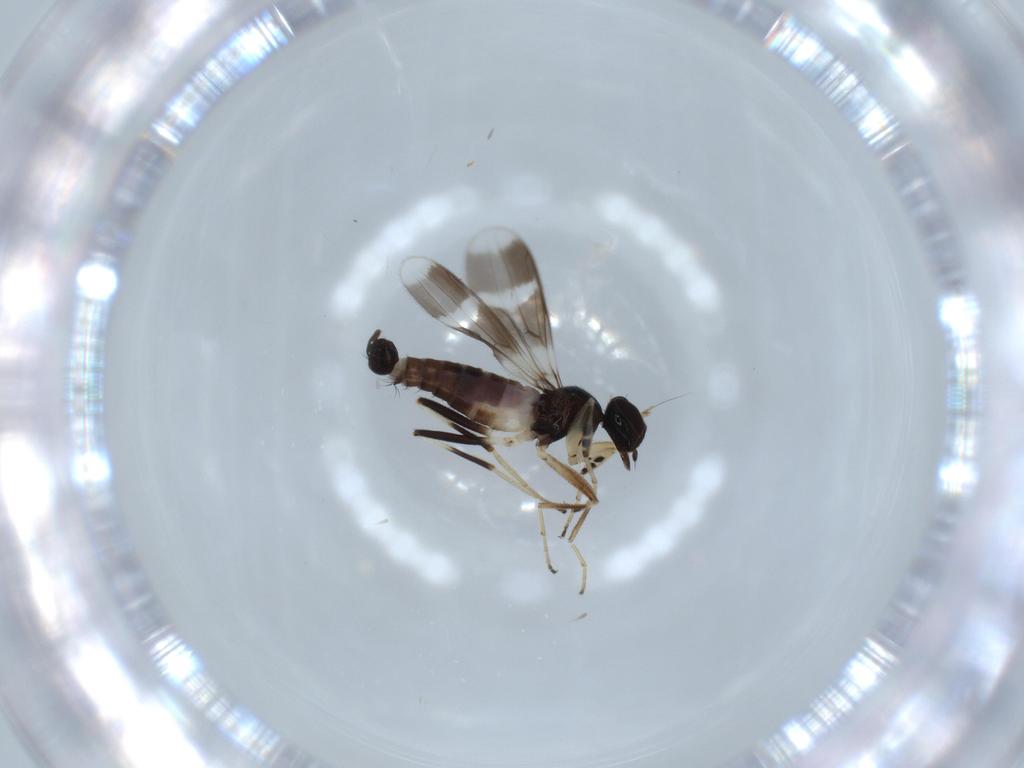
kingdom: Animalia
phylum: Arthropoda
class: Insecta
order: Diptera
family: Hybotidae
